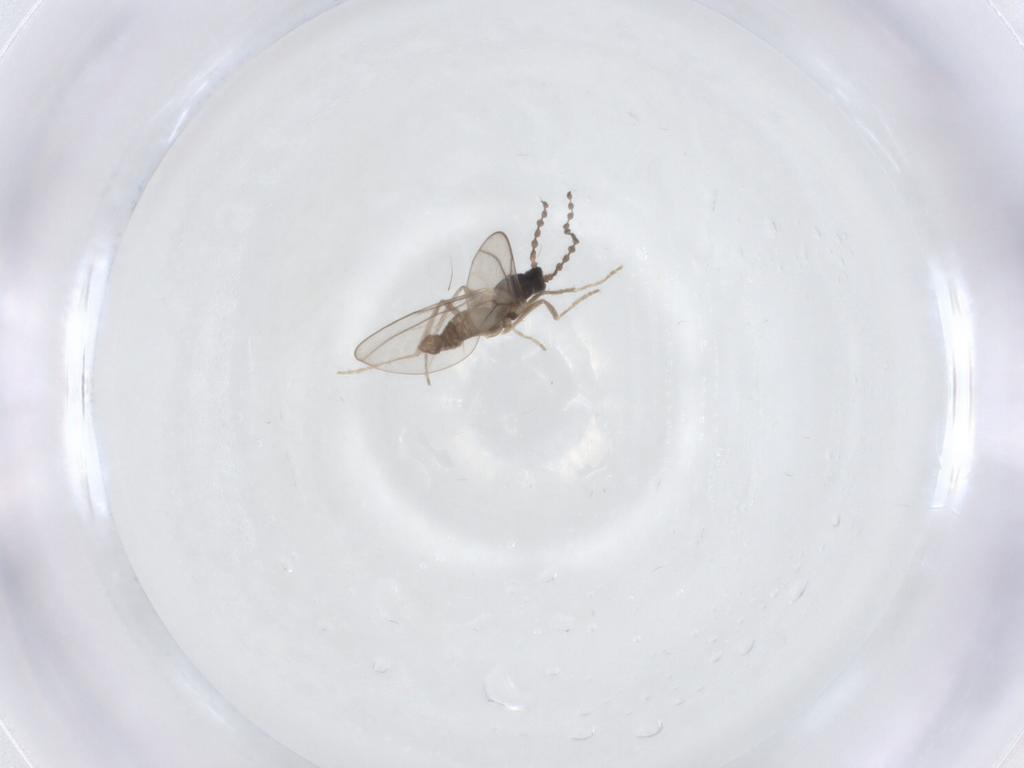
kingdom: Animalia
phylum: Arthropoda
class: Insecta
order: Diptera
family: Cecidomyiidae
